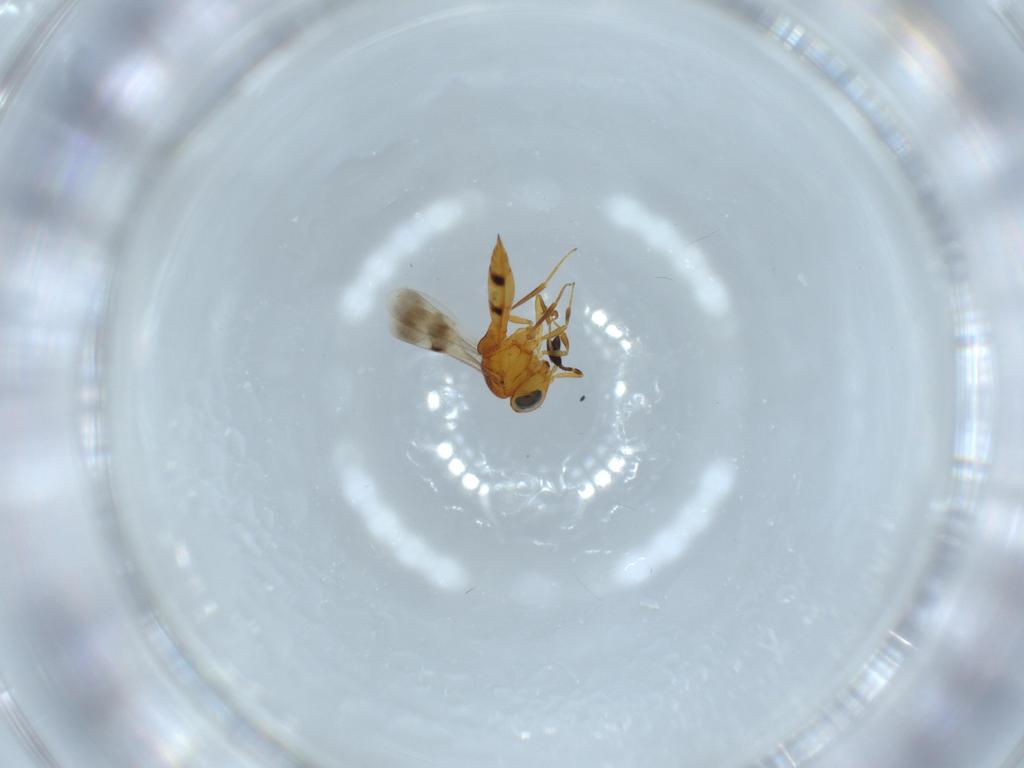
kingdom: Animalia
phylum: Arthropoda
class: Insecta
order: Hymenoptera
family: Scelionidae
